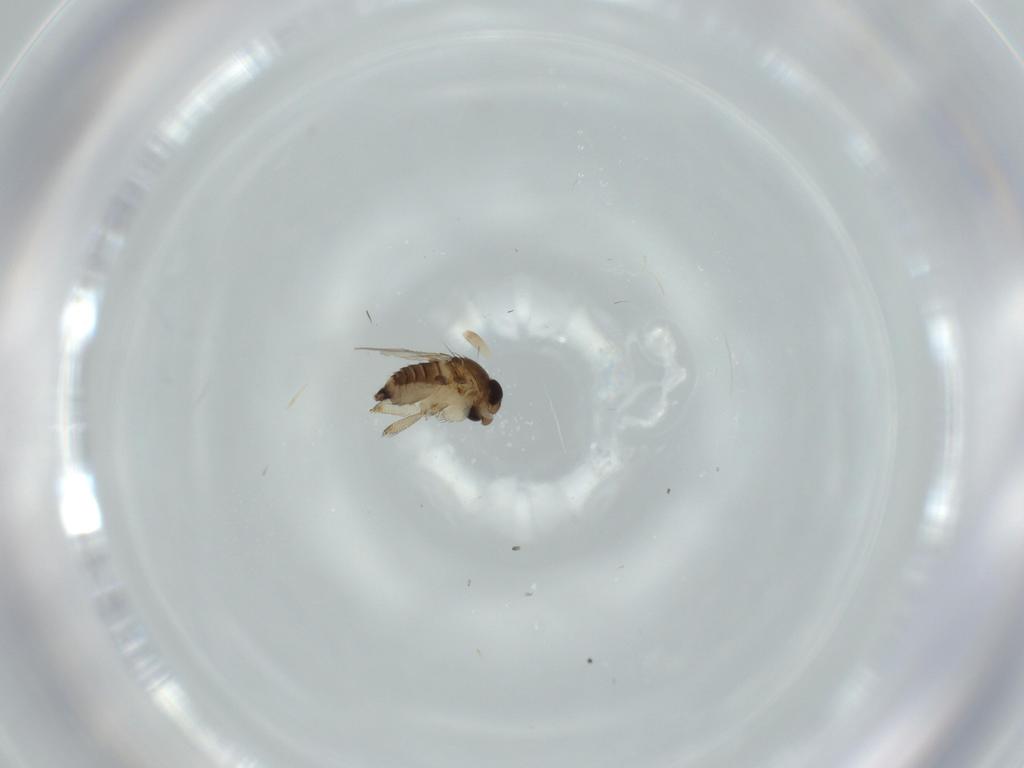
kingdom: Animalia
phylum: Arthropoda
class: Insecta
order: Diptera
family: Phoridae
